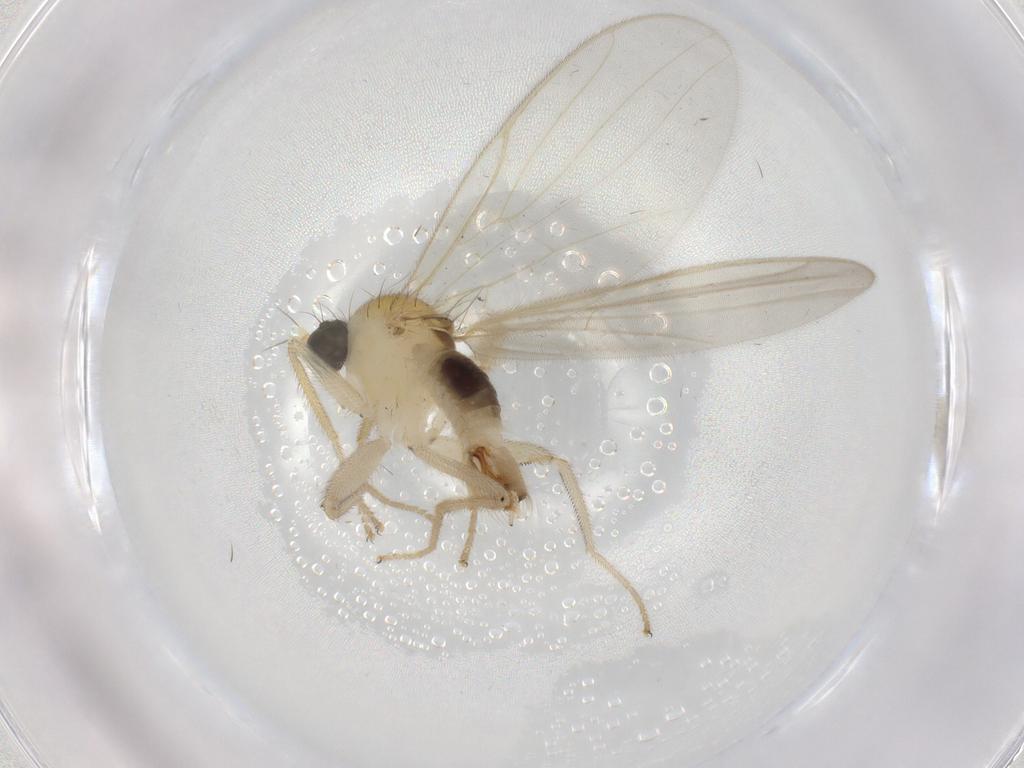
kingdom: Animalia
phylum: Arthropoda
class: Insecta
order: Diptera
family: Hybotidae
